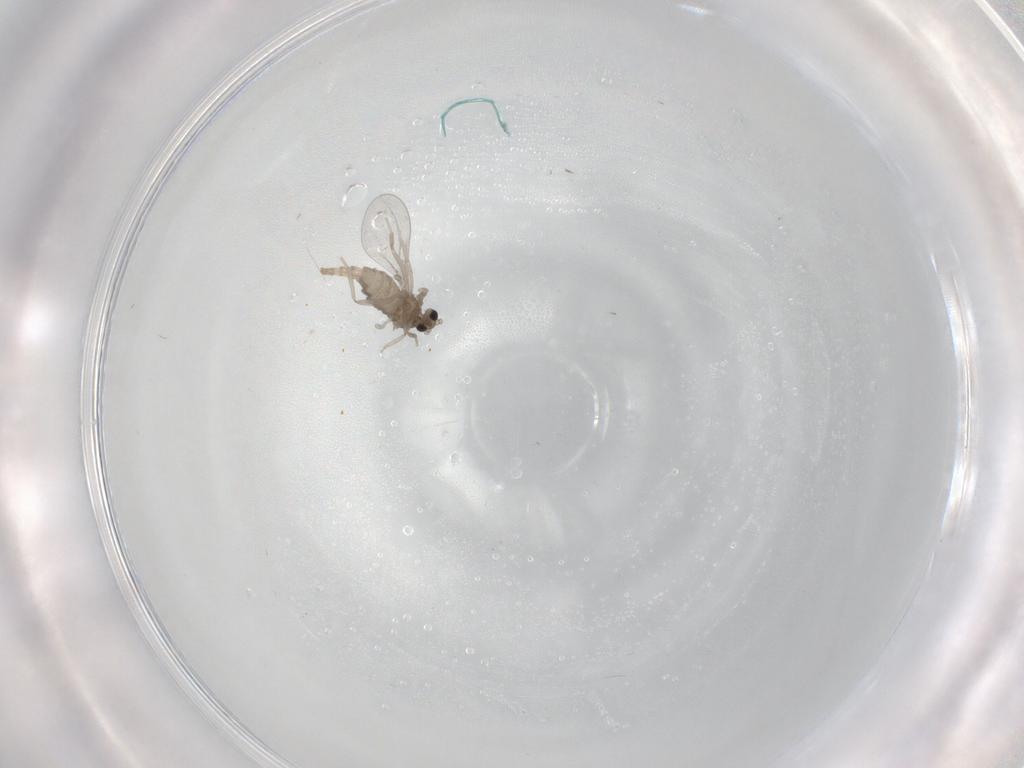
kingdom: Animalia
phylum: Arthropoda
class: Insecta
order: Diptera
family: Cecidomyiidae
